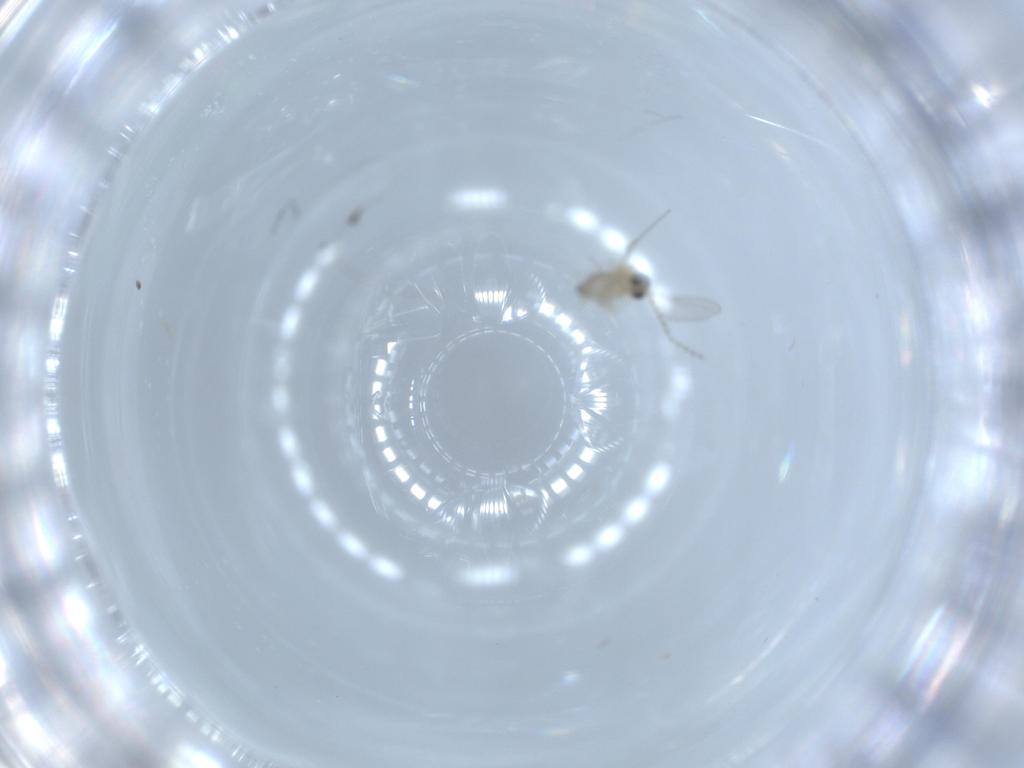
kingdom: Animalia
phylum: Arthropoda
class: Insecta
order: Diptera
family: Cecidomyiidae
